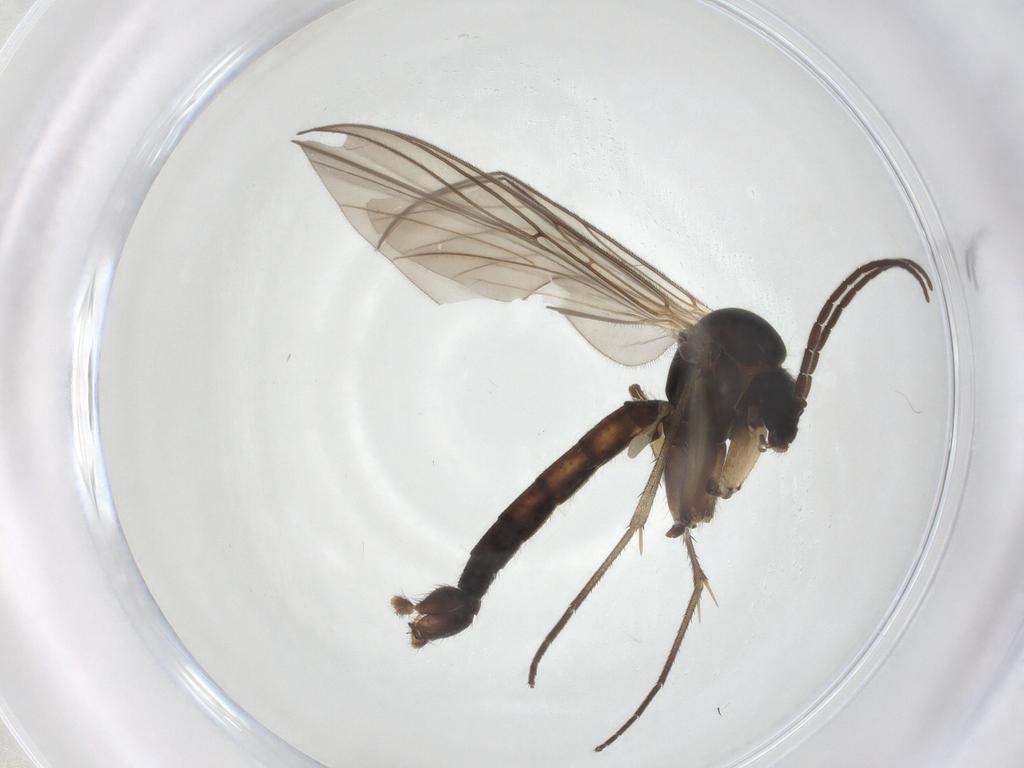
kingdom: Animalia
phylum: Arthropoda
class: Insecta
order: Diptera
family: Mycetophilidae
